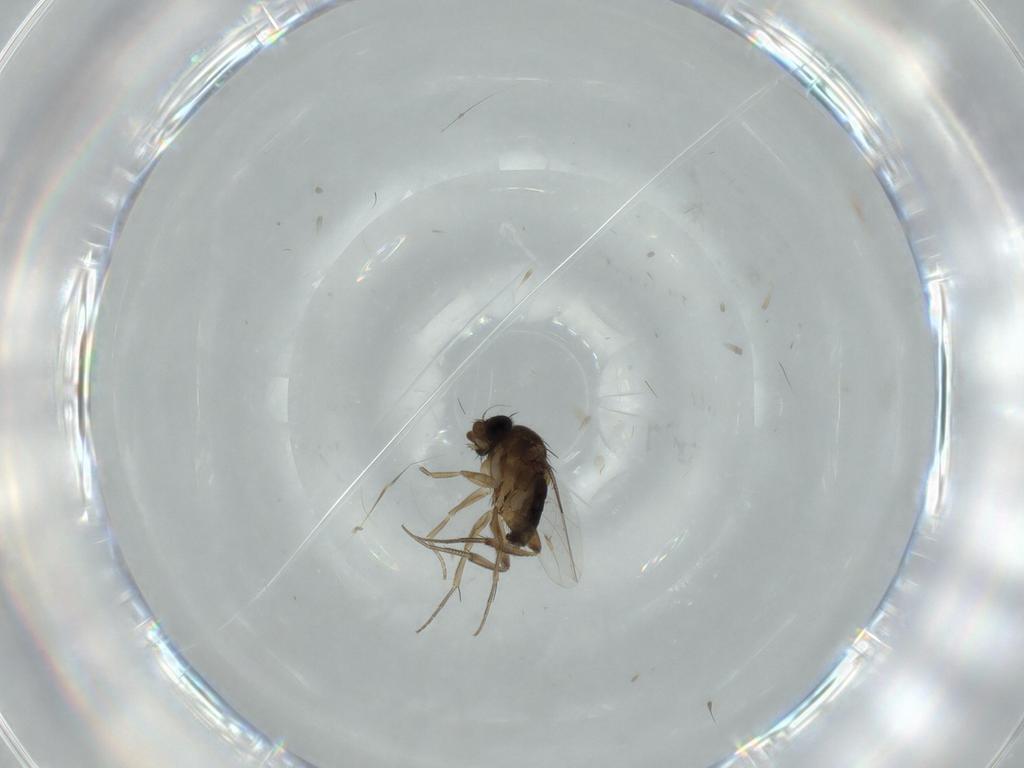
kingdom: Animalia
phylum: Arthropoda
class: Insecta
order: Diptera
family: Phoridae
